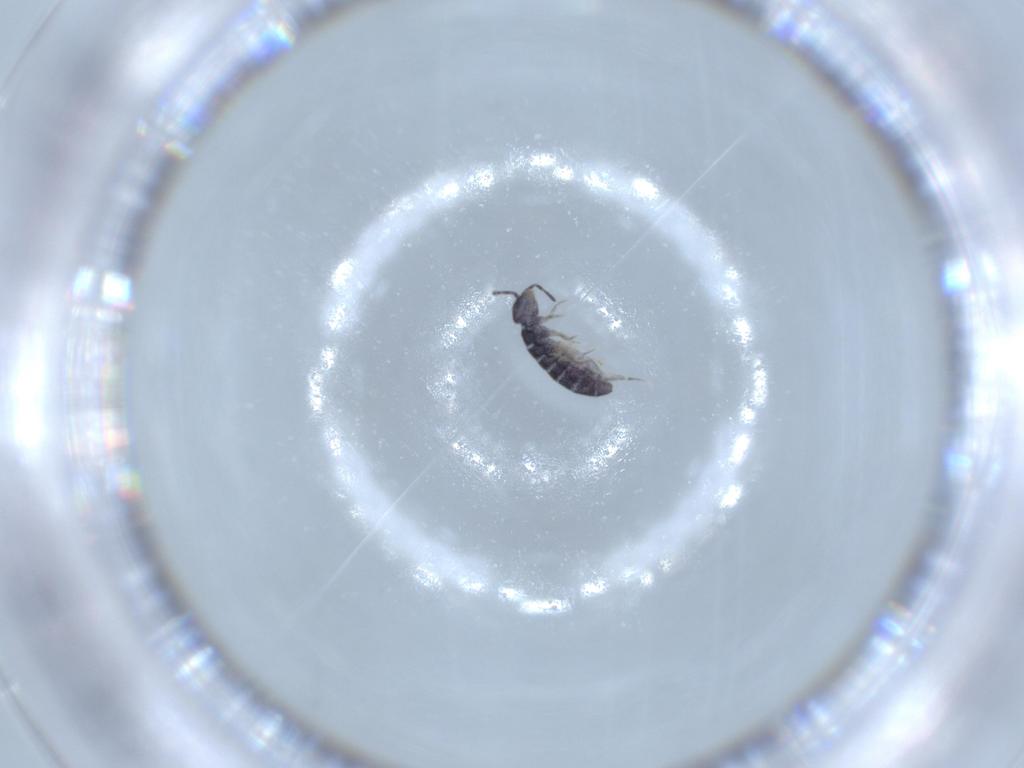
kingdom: Animalia
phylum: Arthropoda
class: Collembola
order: Entomobryomorpha
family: Isotomidae
